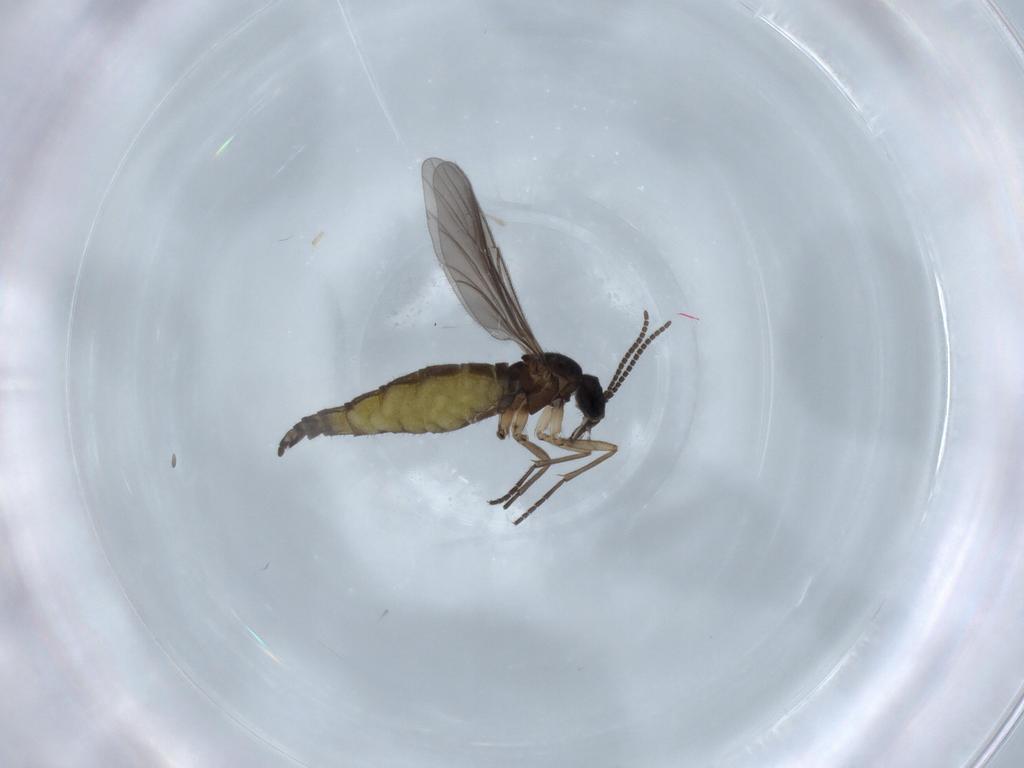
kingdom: Animalia
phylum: Arthropoda
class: Insecta
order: Diptera
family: Sciaridae
